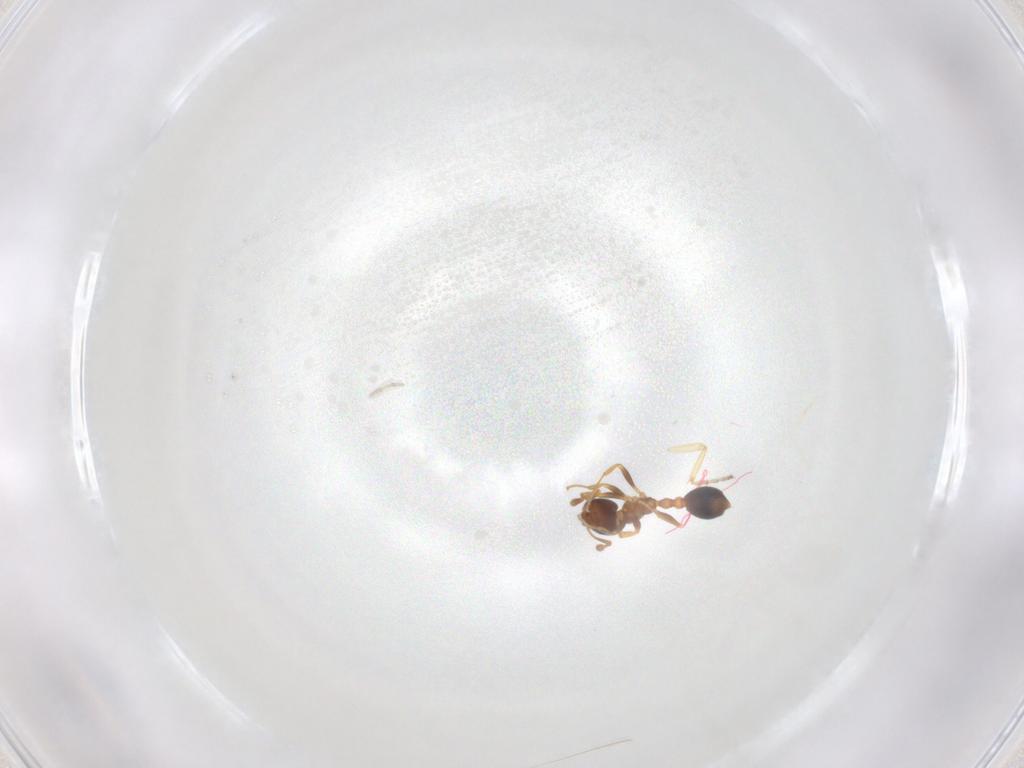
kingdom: Animalia
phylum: Arthropoda
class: Insecta
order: Hymenoptera
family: Formicidae
